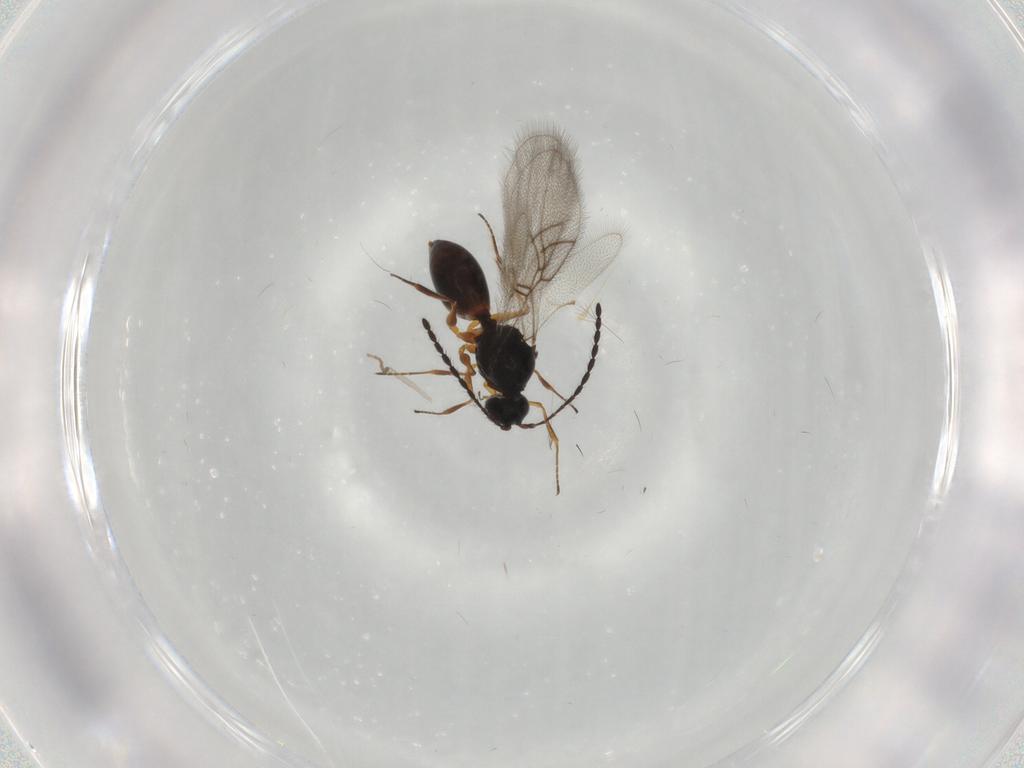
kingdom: Animalia
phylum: Arthropoda
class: Insecta
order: Hymenoptera
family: Figitidae
